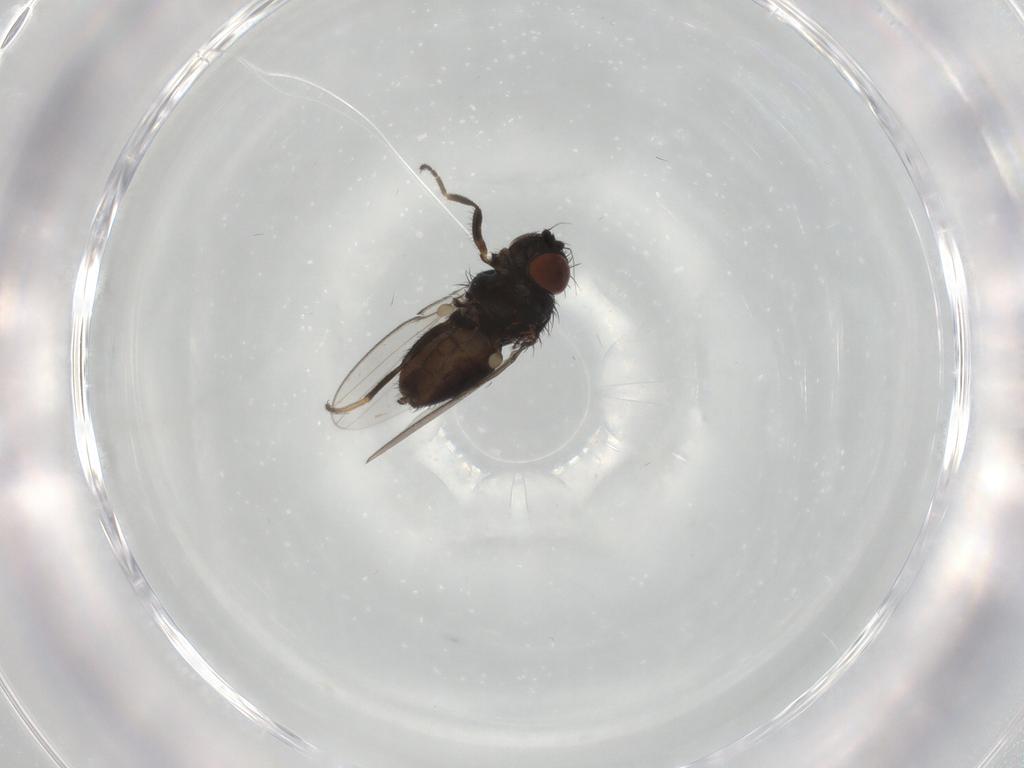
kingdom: Animalia
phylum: Arthropoda
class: Insecta
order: Diptera
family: Milichiidae
